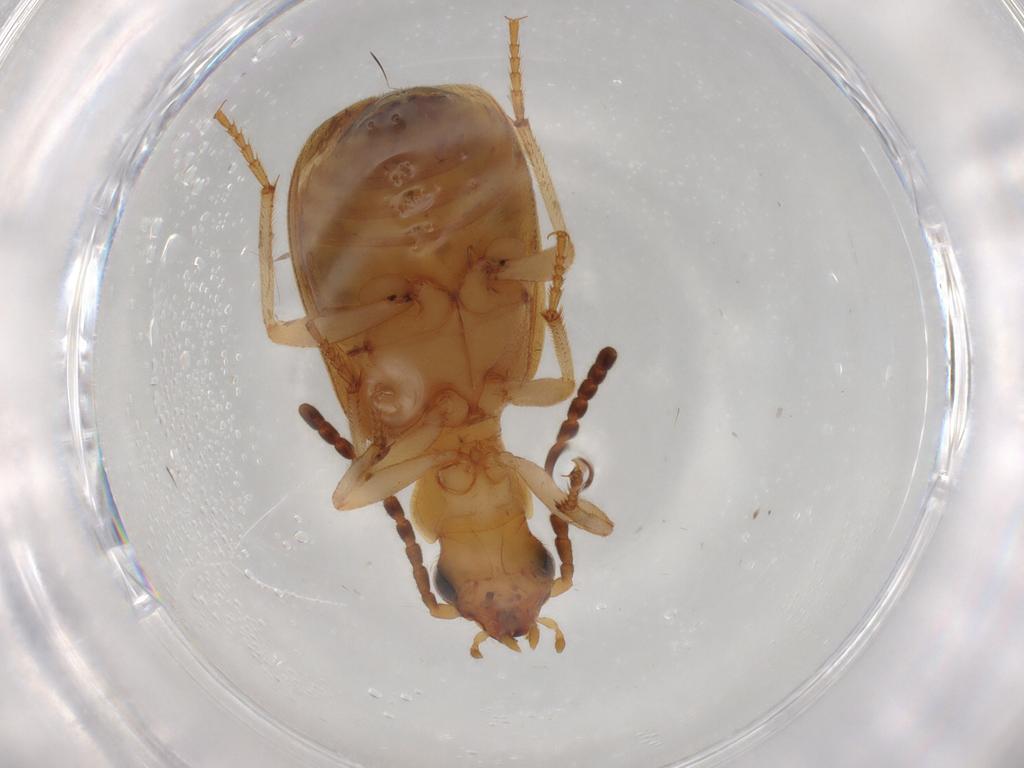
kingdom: Animalia
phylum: Arthropoda
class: Insecta
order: Coleoptera
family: Carabidae
